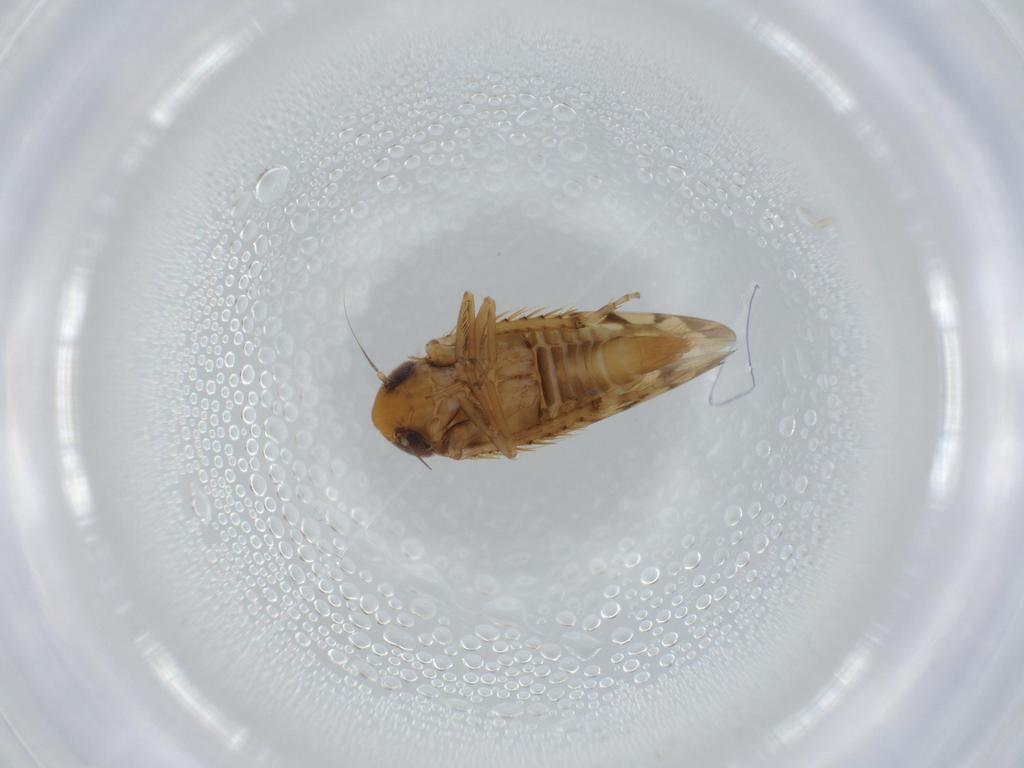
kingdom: Animalia
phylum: Arthropoda
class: Insecta
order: Hemiptera
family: Cicadellidae
